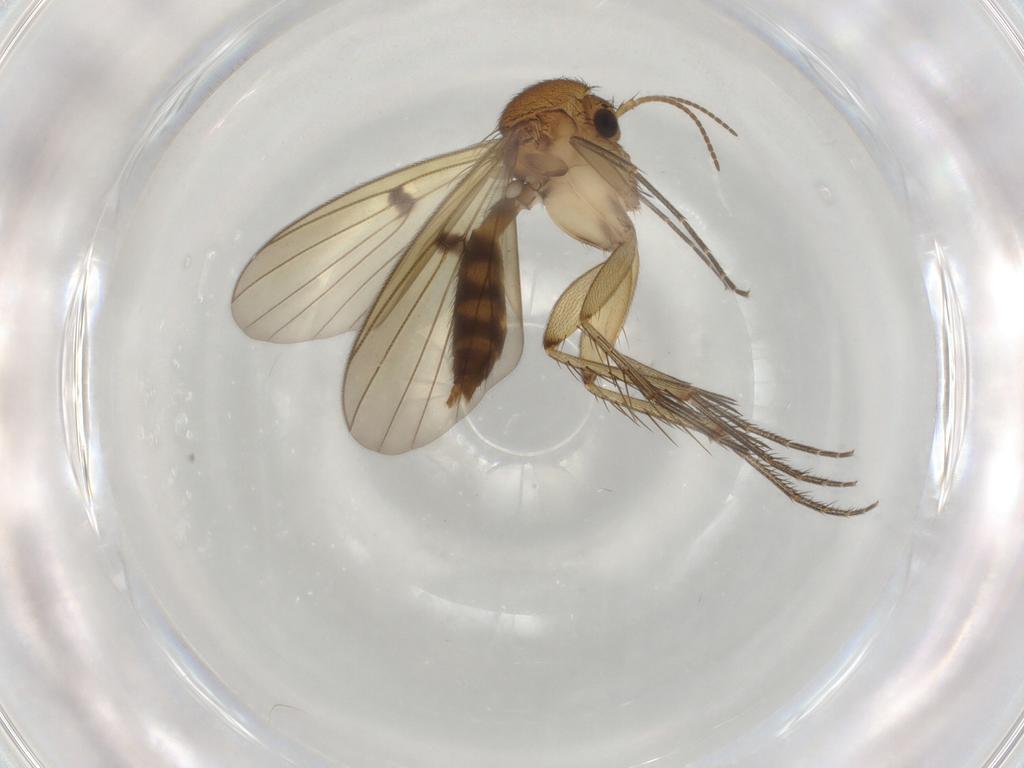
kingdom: Animalia
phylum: Arthropoda
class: Insecta
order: Diptera
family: Mycetophilidae
